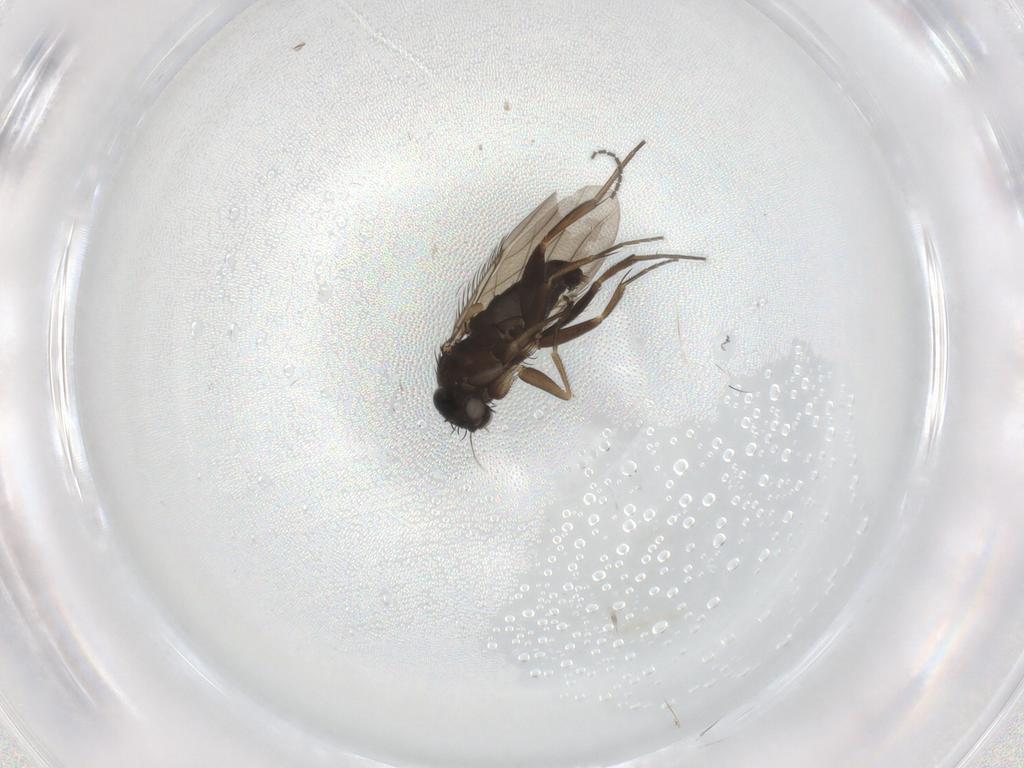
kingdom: Animalia
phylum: Arthropoda
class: Insecta
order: Diptera
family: Phoridae
